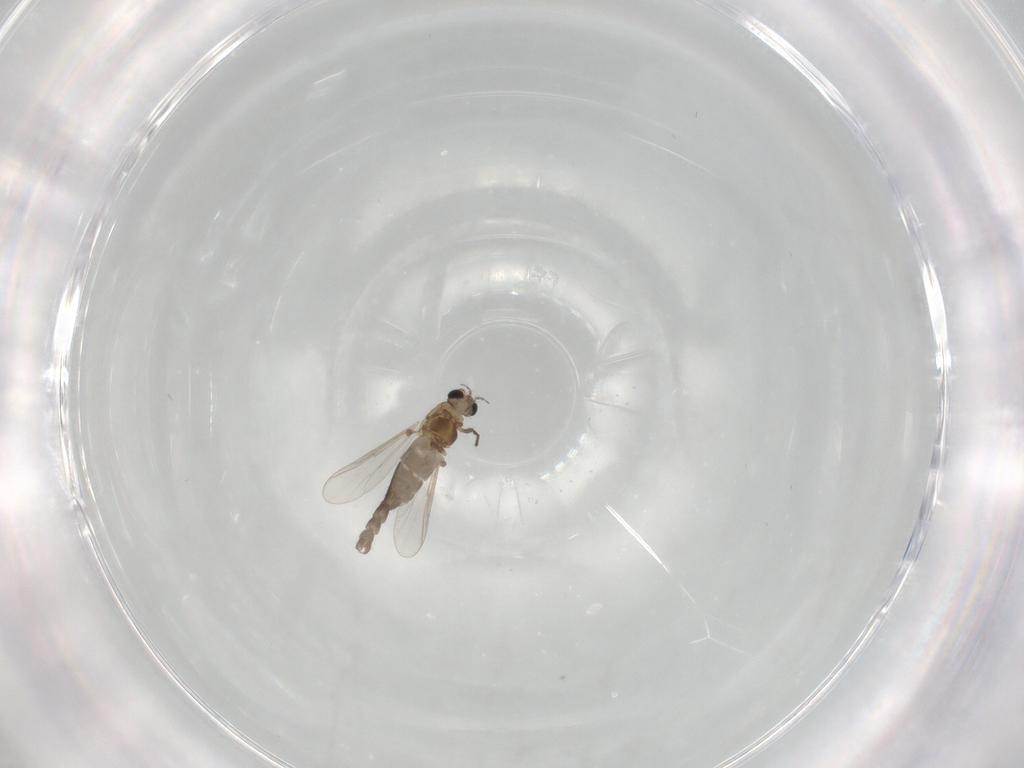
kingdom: Animalia
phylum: Arthropoda
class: Insecta
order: Diptera
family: Chironomidae
